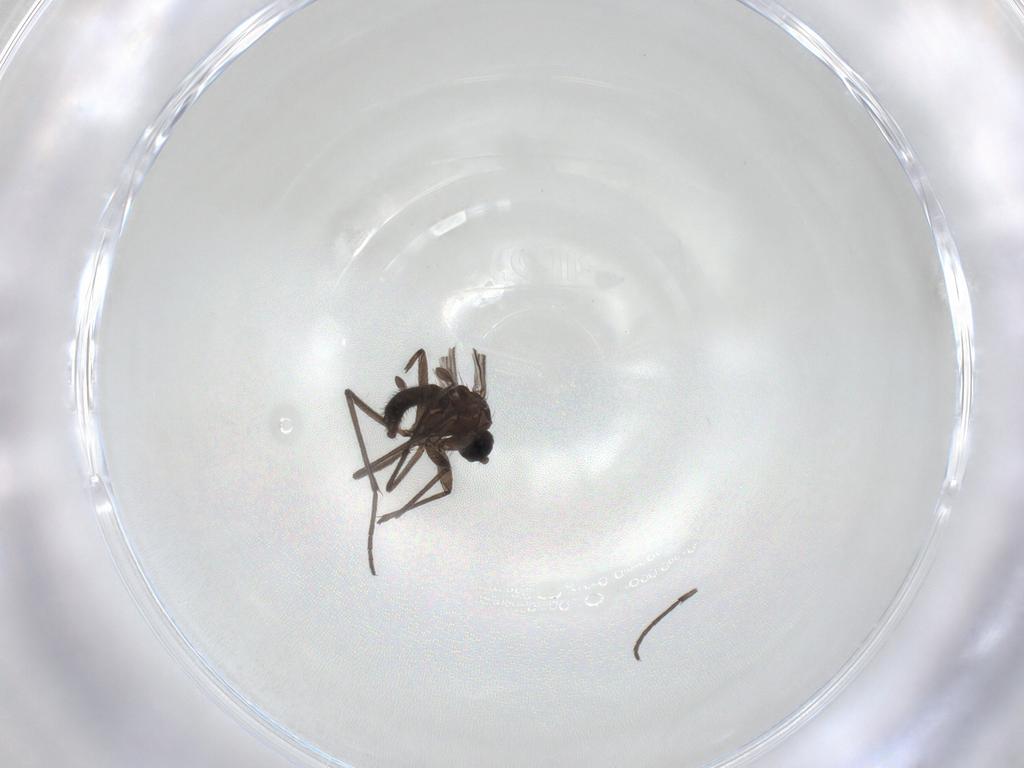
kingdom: Animalia
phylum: Arthropoda
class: Insecta
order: Diptera
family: Sciaridae
